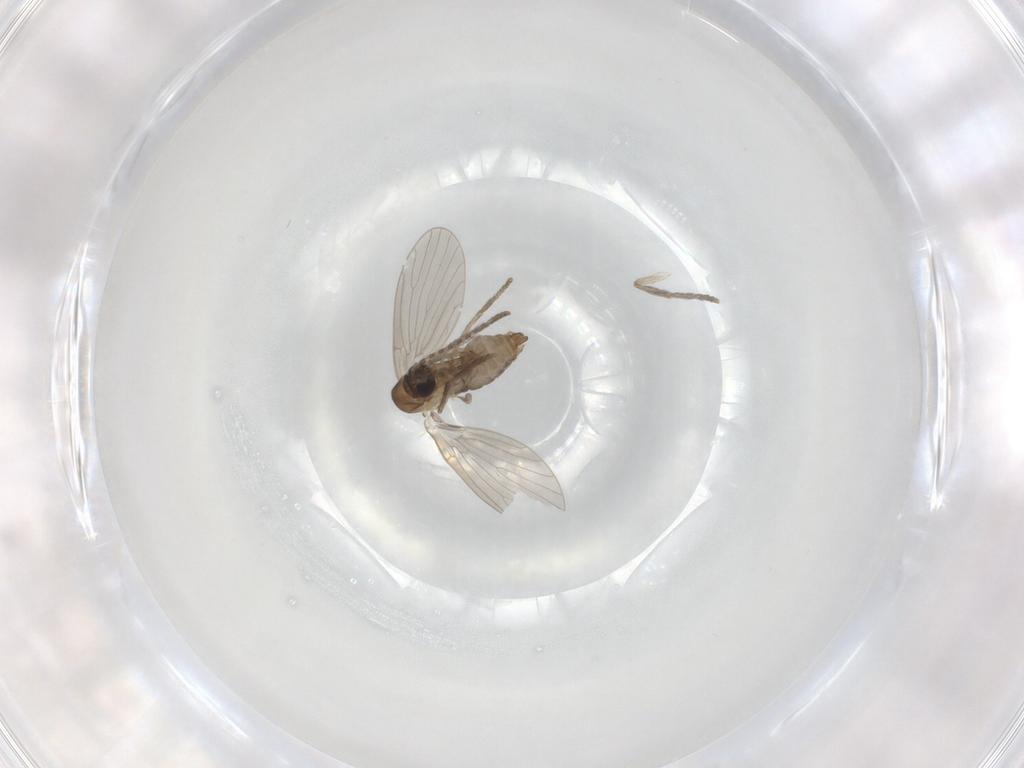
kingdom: Animalia
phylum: Arthropoda
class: Insecta
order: Diptera
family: Psychodidae
